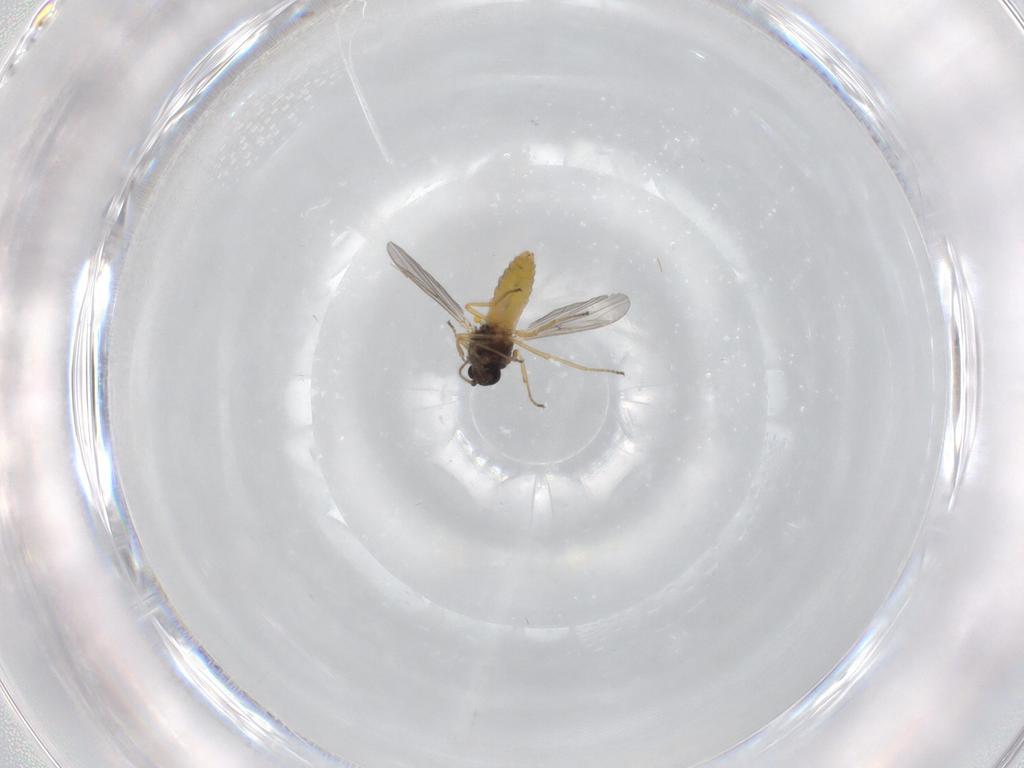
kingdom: Animalia
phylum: Arthropoda
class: Insecta
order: Diptera
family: Ceratopogonidae
